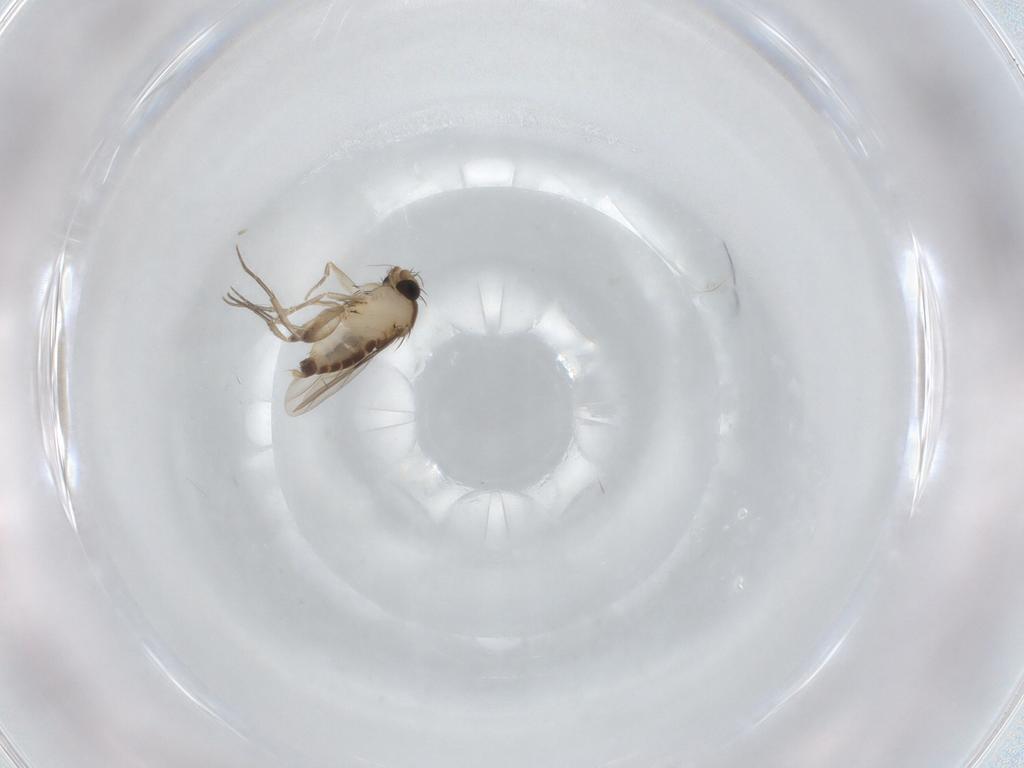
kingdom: Animalia
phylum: Arthropoda
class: Insecta
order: Diptera
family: Phoridae
